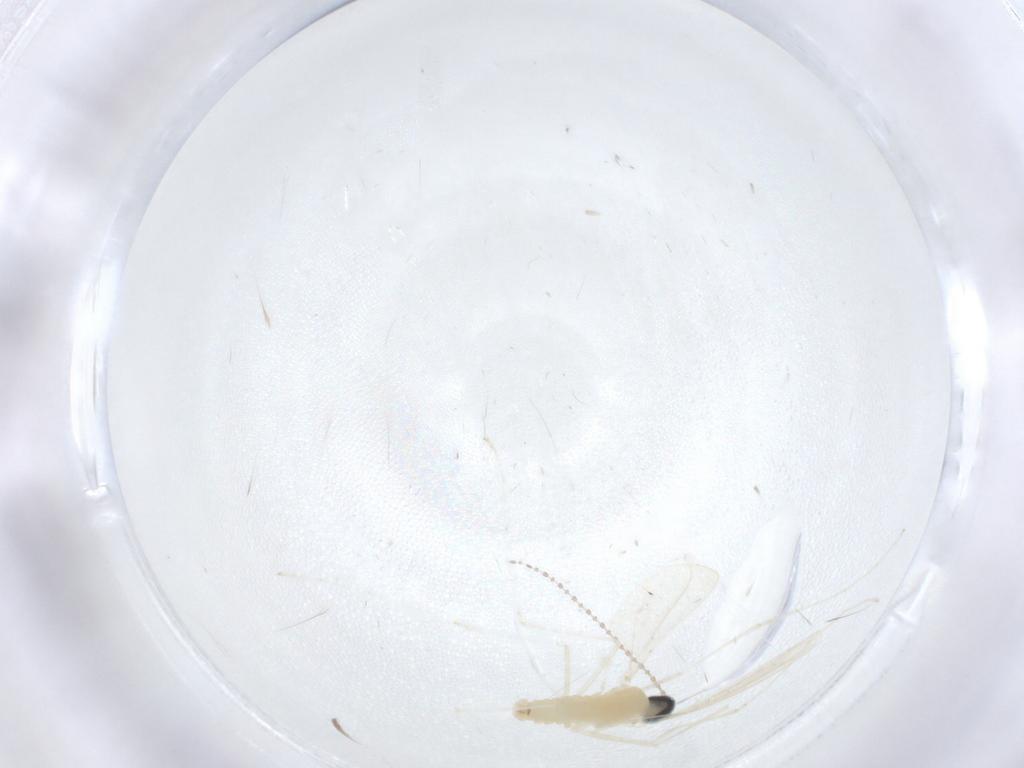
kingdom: Animalia
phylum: Arthropoda
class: Insecta
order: Diptera
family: Cecidomyiidae
